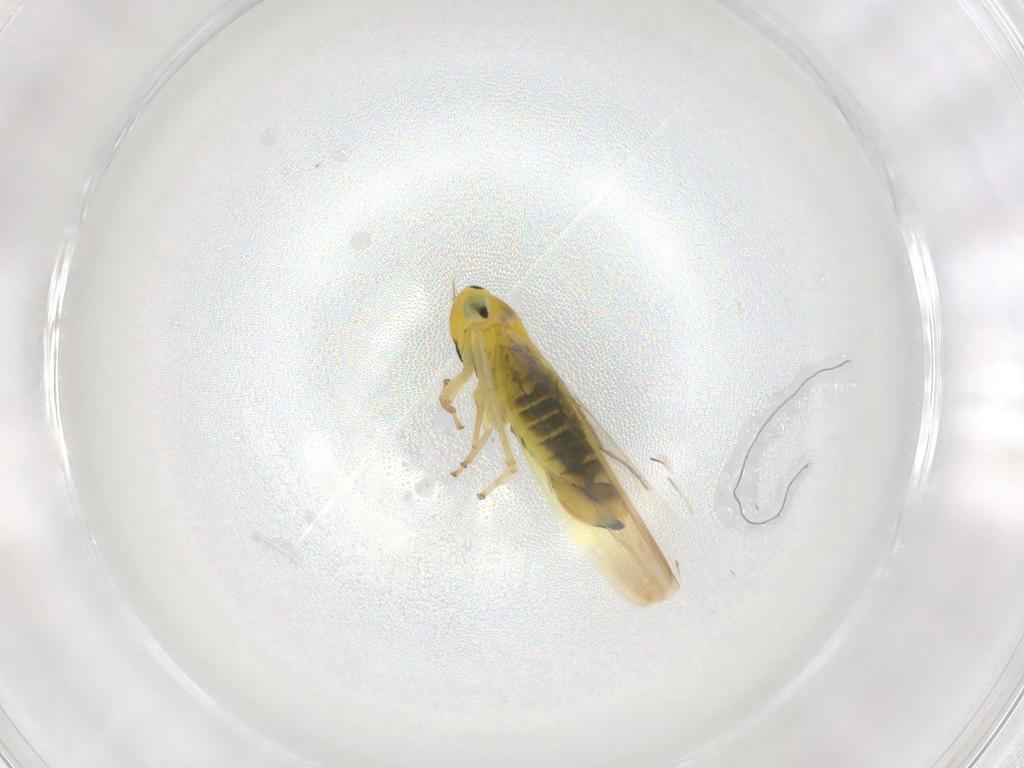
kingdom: Animalia
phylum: Arthropoda
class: Insecta
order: Hemiptera
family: Cicadellidae
